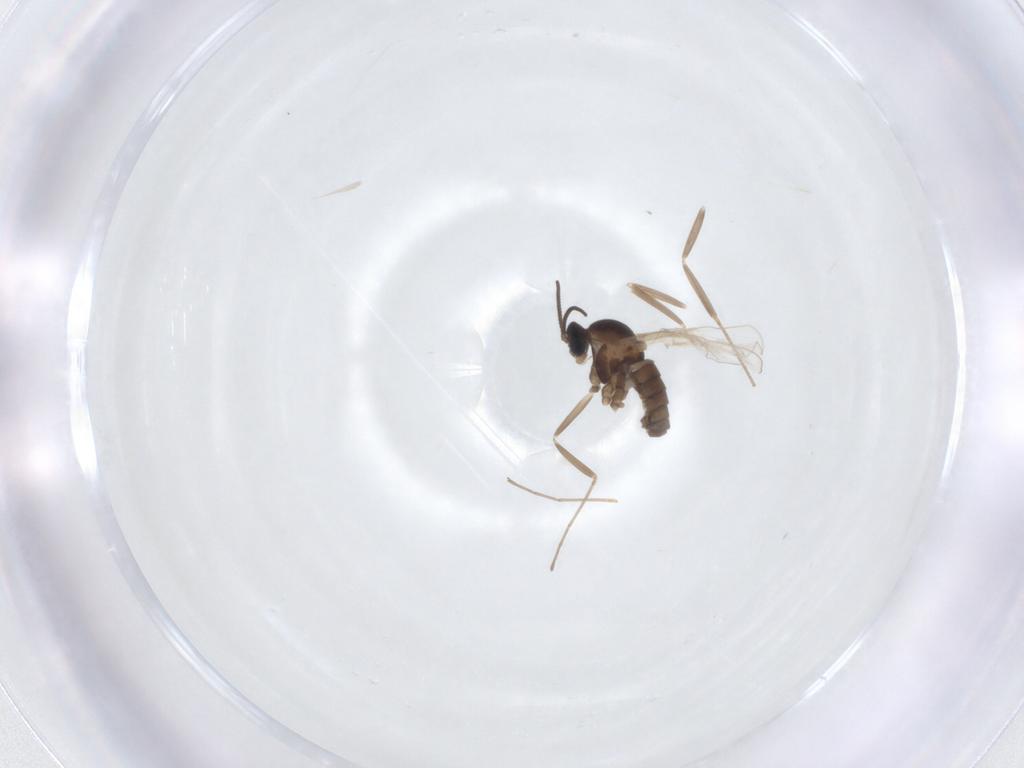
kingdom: Animalia
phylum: Arthropoda
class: Insecta
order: Diptera
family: Cecidomyiidae
